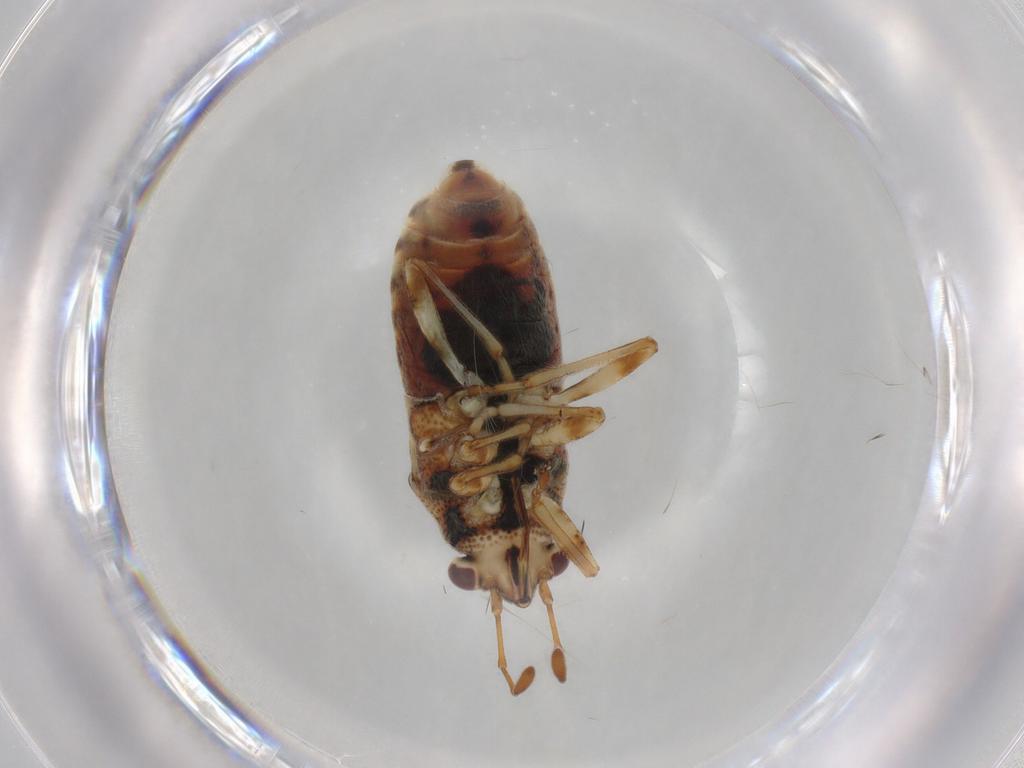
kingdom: Animalia
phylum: Arthropoda
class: Insecta
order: Hemiptera
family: Lygaeidae
